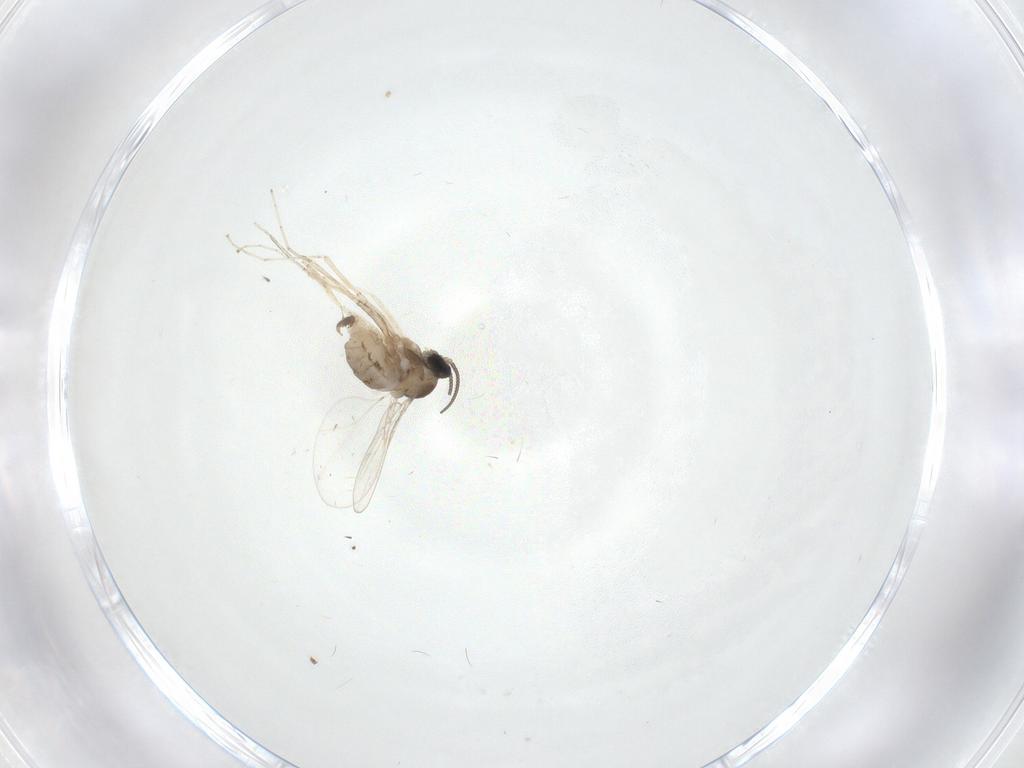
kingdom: Animalia
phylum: Arthropoda
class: Insecta
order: Diptera
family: Cecidomyiidae
